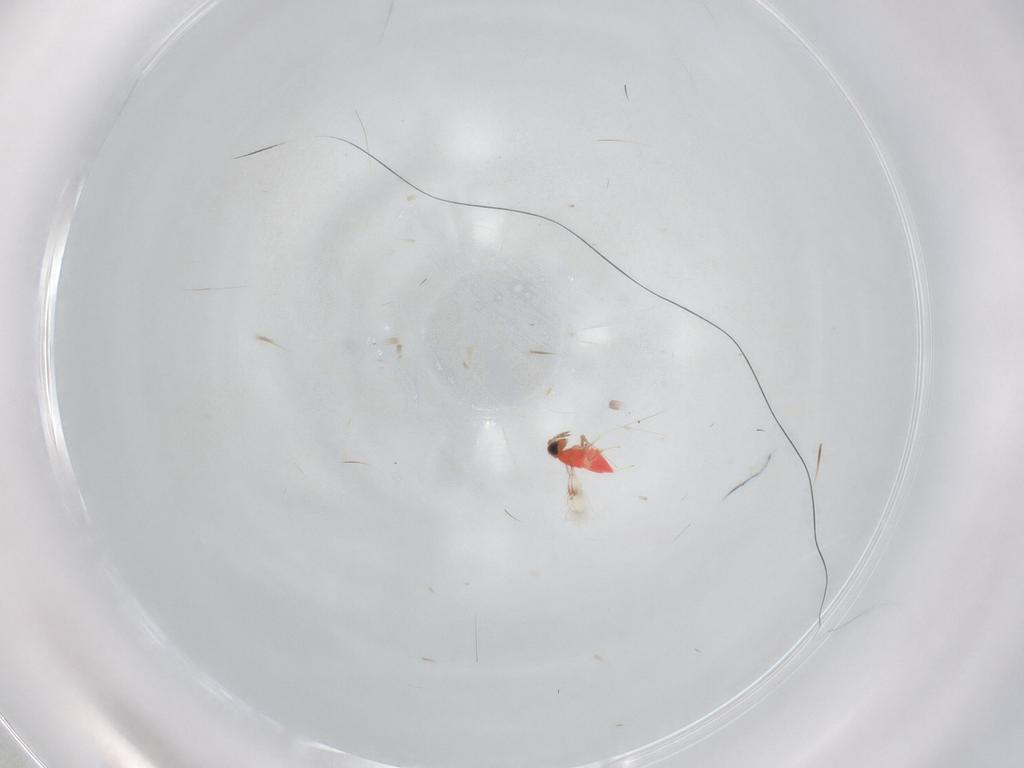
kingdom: Animalia
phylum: Arthropoda
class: Insecta
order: Hymenoptera
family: Trichogrammatidae
